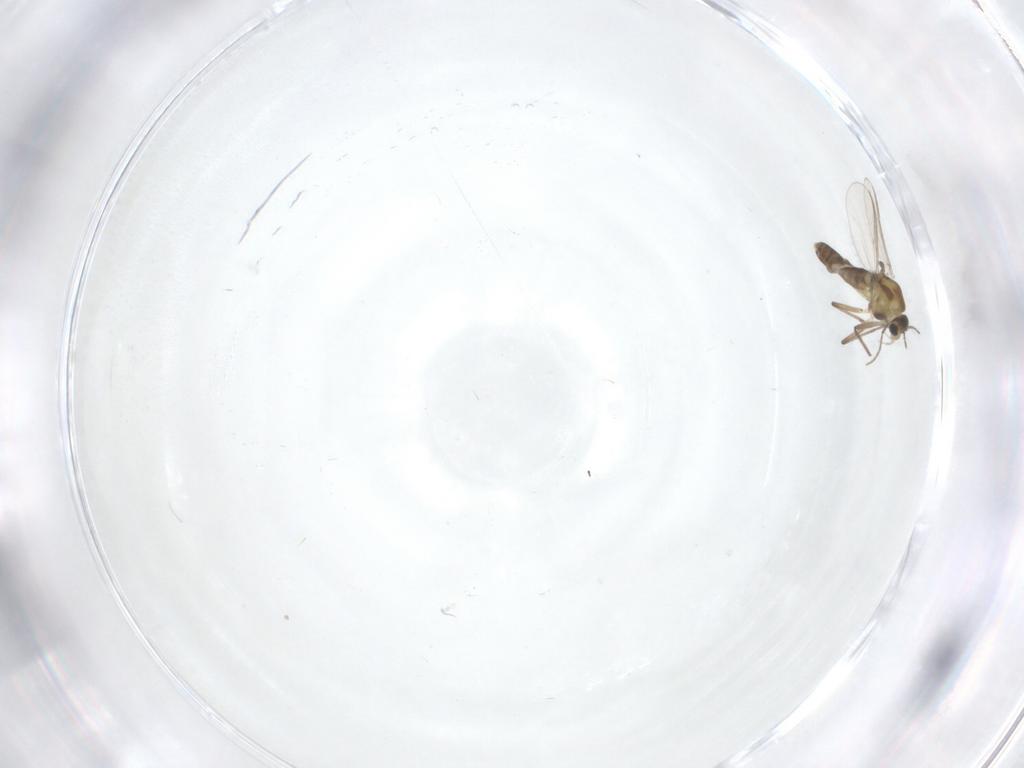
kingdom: Animalia
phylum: Arthropoda
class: Insecta
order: Diptera
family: Chironomidae
